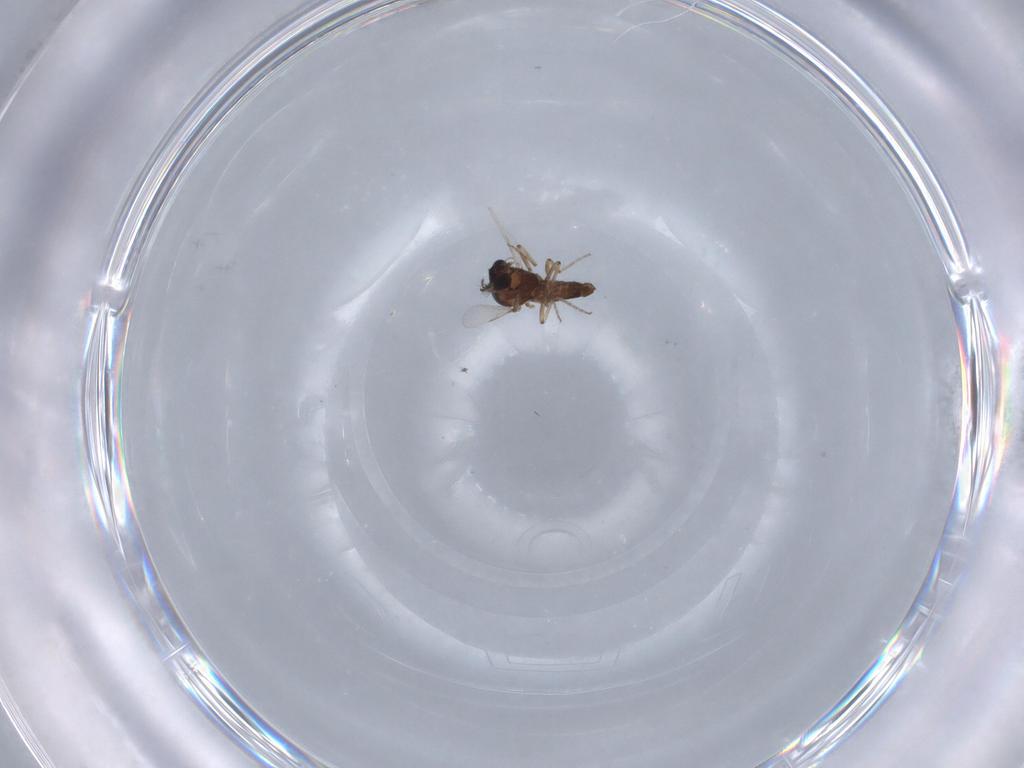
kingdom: Animalia
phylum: Arthropoda
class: Insecta
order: Diptera
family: Ceratopogonidae
